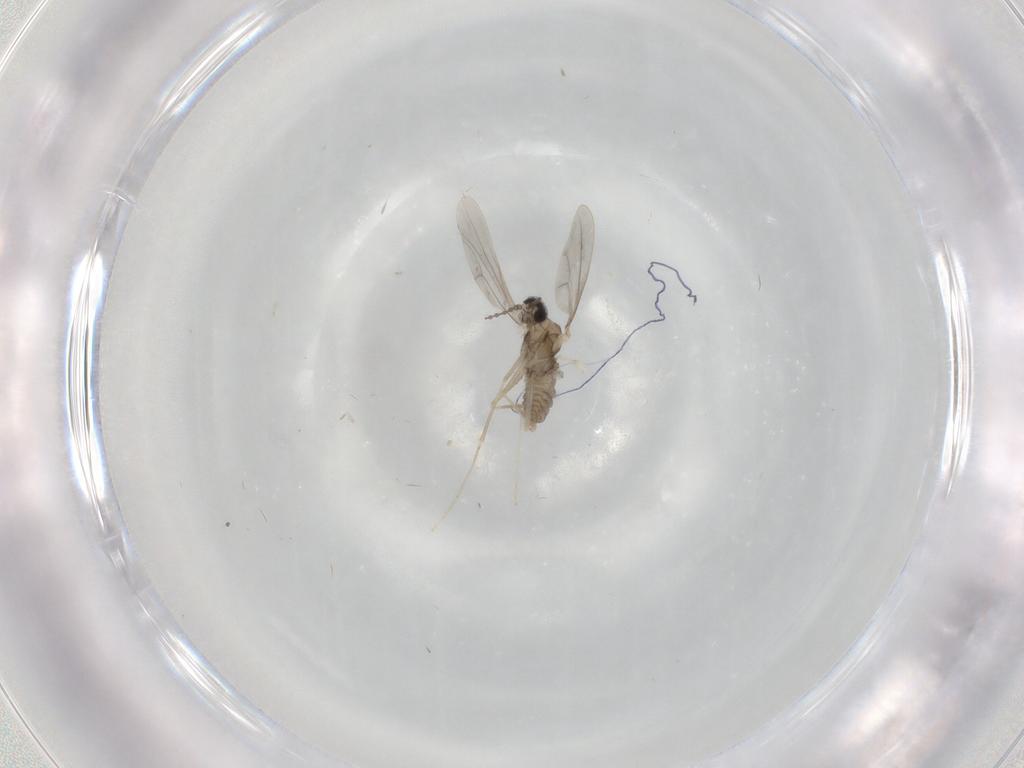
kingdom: Animalia
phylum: Arthropoda
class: Insecta
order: Diptera
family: Cecidomyiidae
